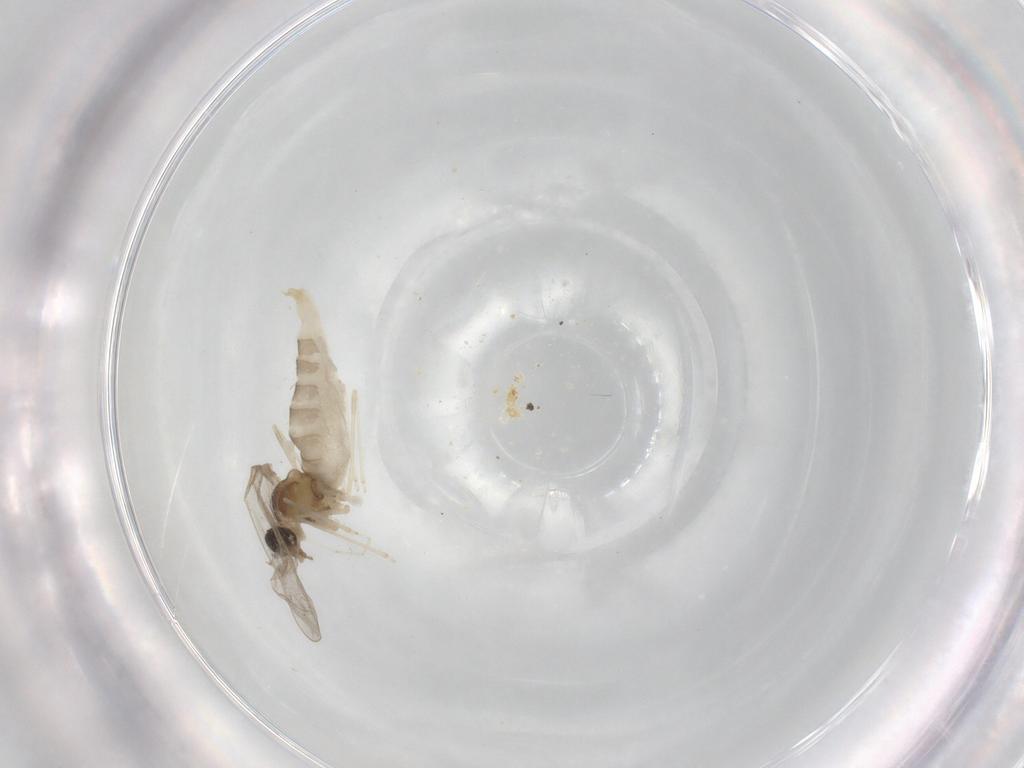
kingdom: Animalia
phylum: Arthropoda
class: Insecta
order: Diptera
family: Cecidomyiidae
